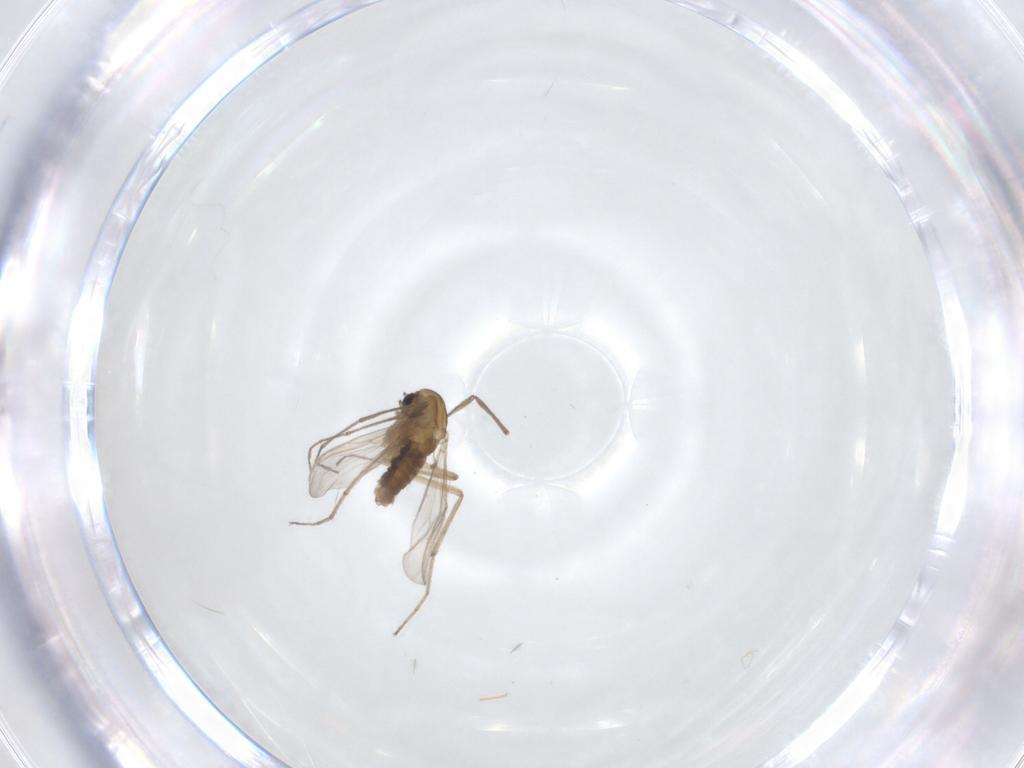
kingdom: Animalia
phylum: Arthropoda
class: Insecta
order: Diptera
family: Chironomidae
